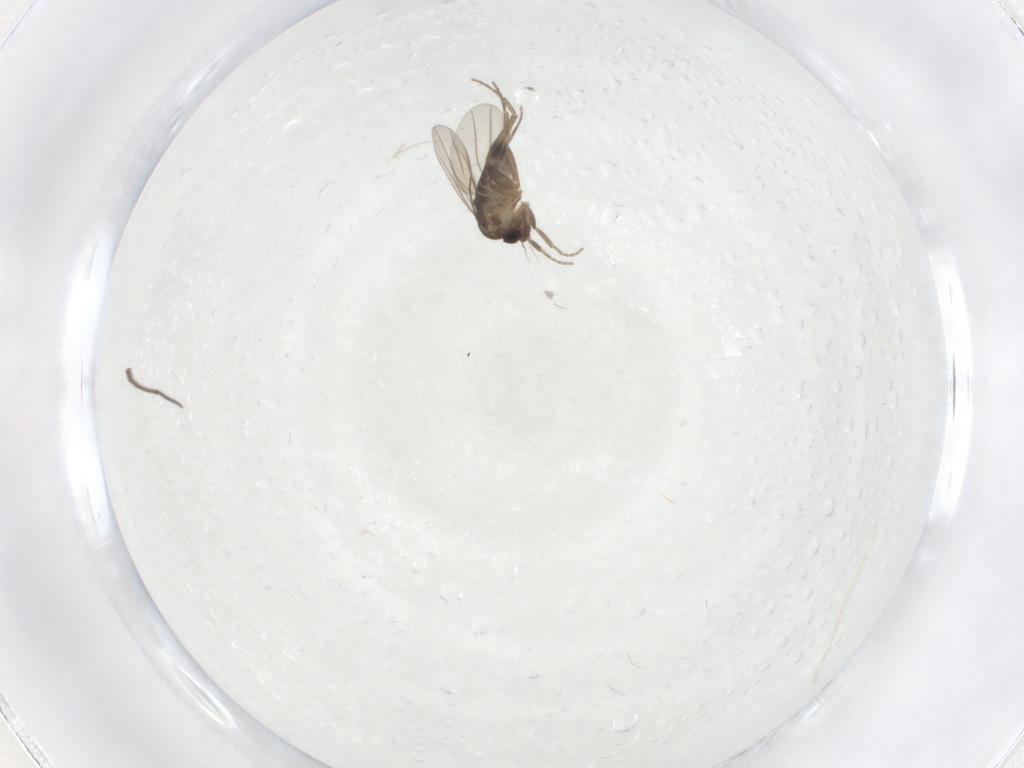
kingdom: Animalia
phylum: Arthropoda
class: Insecta
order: Diptera
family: Phoridae
